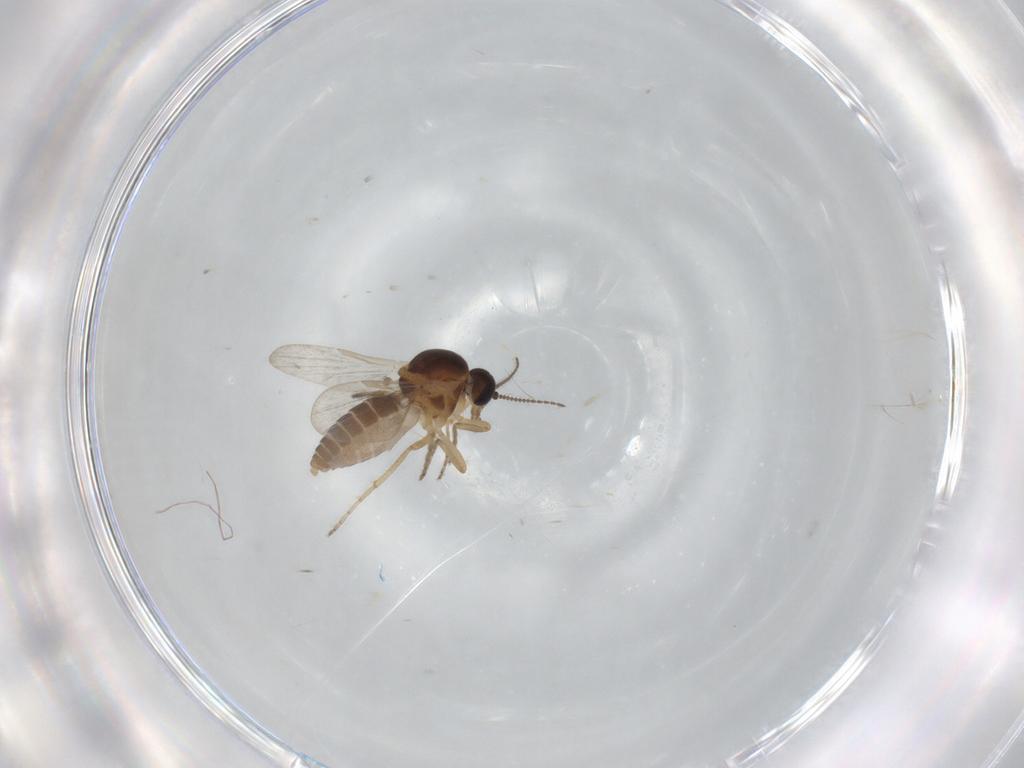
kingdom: Animalia
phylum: Arthropoda
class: Insecta
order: Diptera
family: Ceratopogonidae
